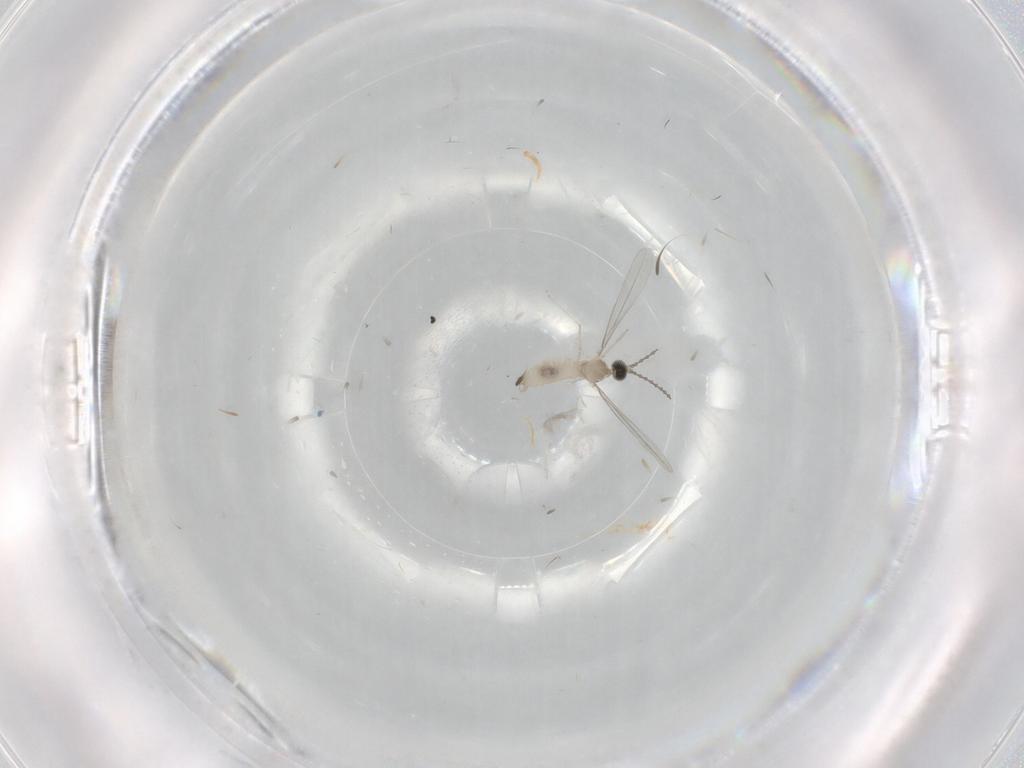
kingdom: Animalia
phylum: Arthropoda
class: Insecta
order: Diptera
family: Cecidomyiidae
